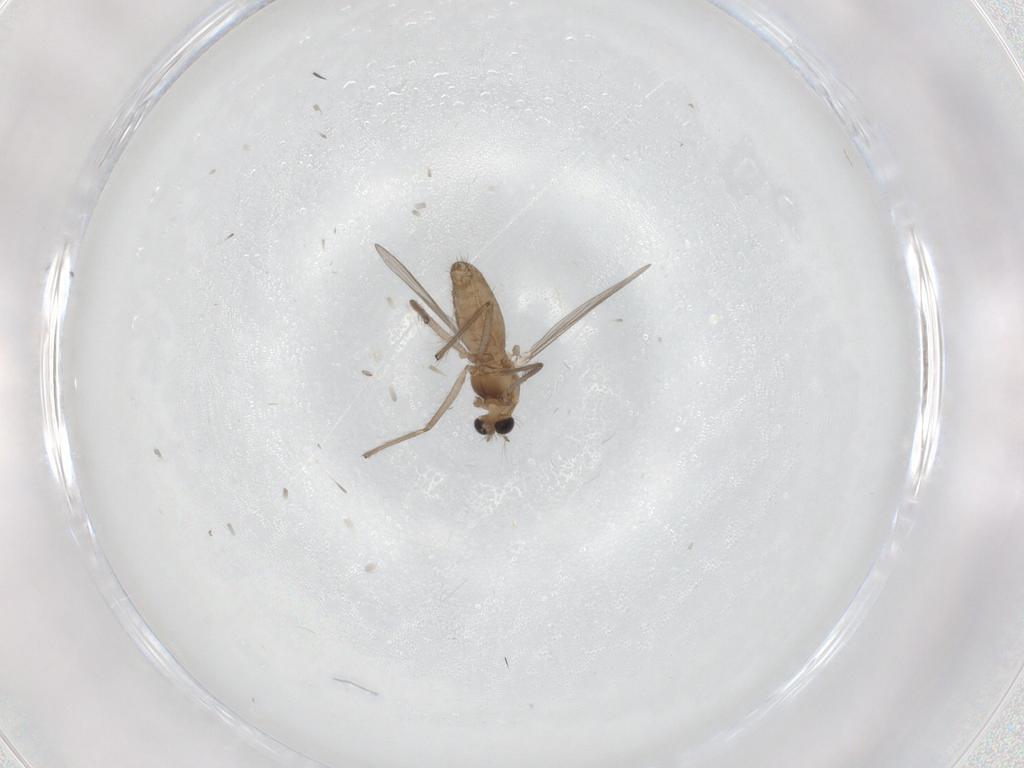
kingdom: Animalia
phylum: Arthropoda
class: Insecta
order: Diptera
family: Chironomidae
